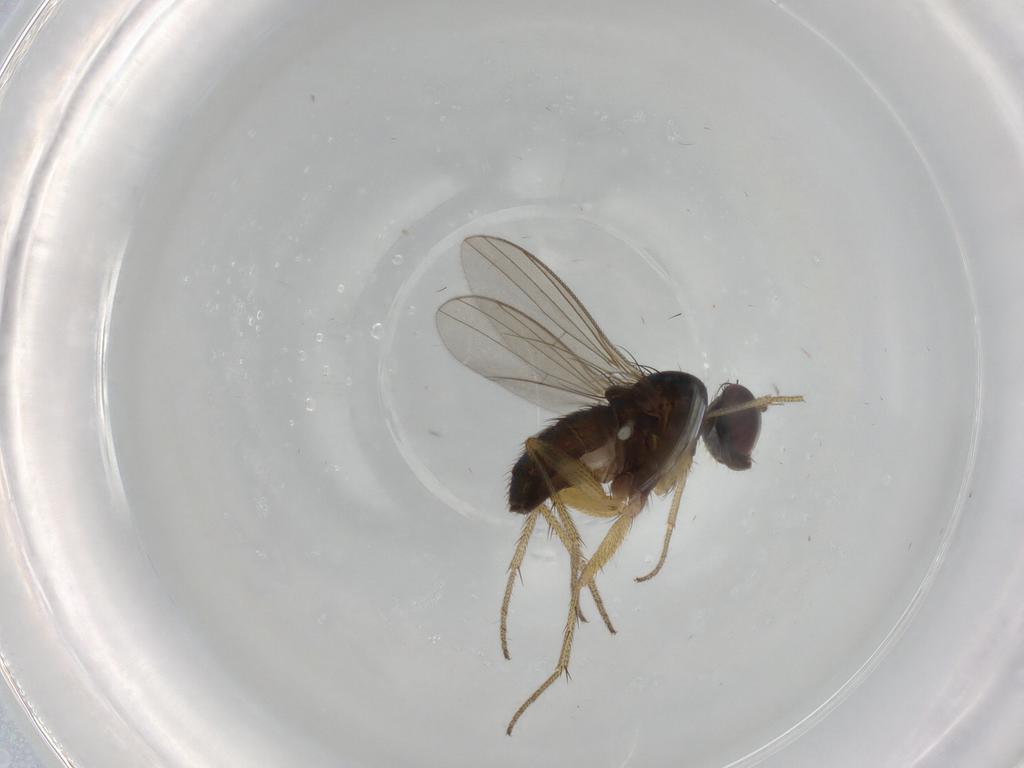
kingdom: Animalia
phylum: Arthropoda
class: Insecta
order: Diptera
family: Dolichopodidae
